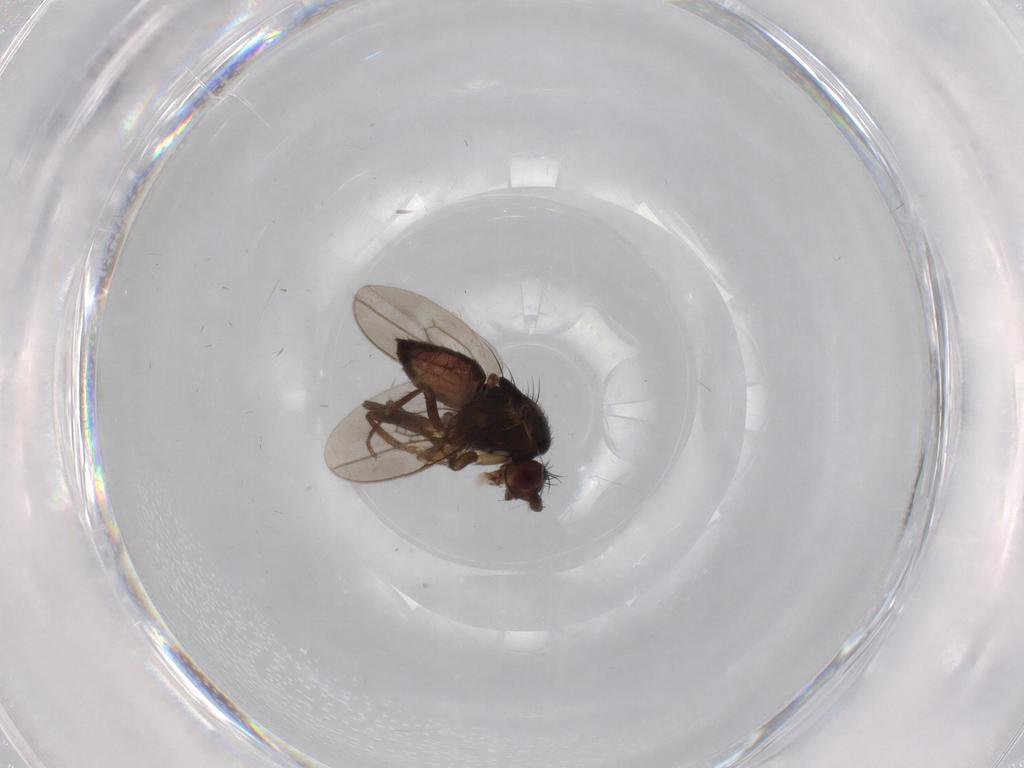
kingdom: Animalia
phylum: Arthropoda
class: Insecta
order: Diptera
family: Sphaeroceridae
